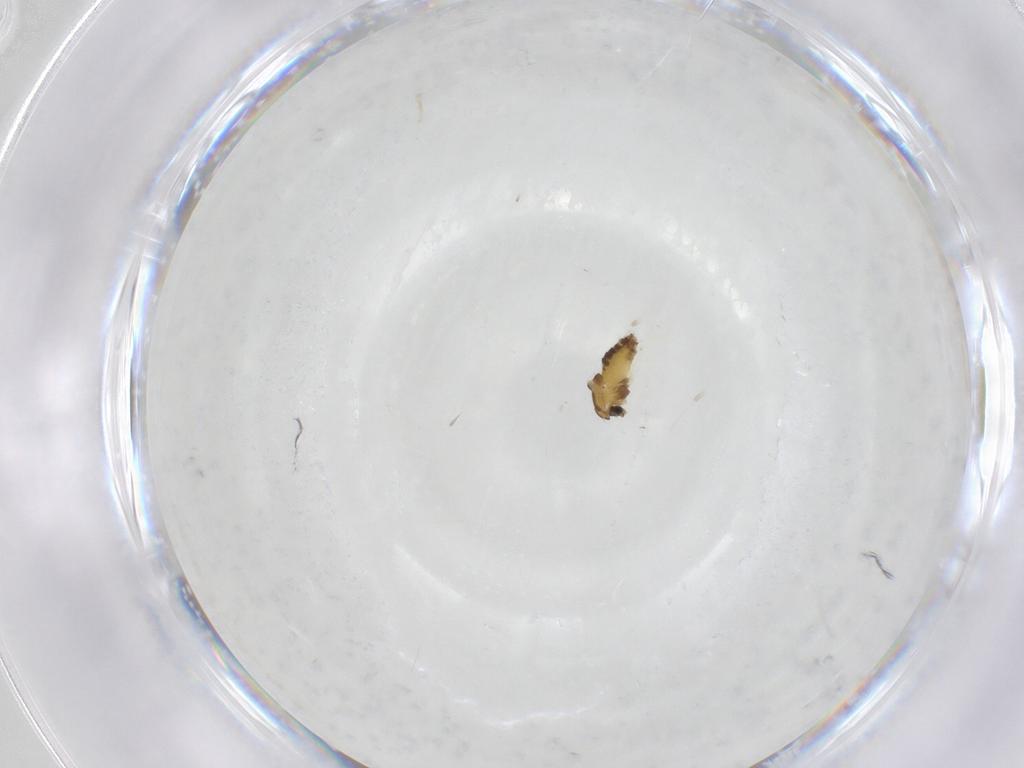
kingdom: Animalia
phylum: Arthropoda
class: Insecta
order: Diptera
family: Chironomidae
